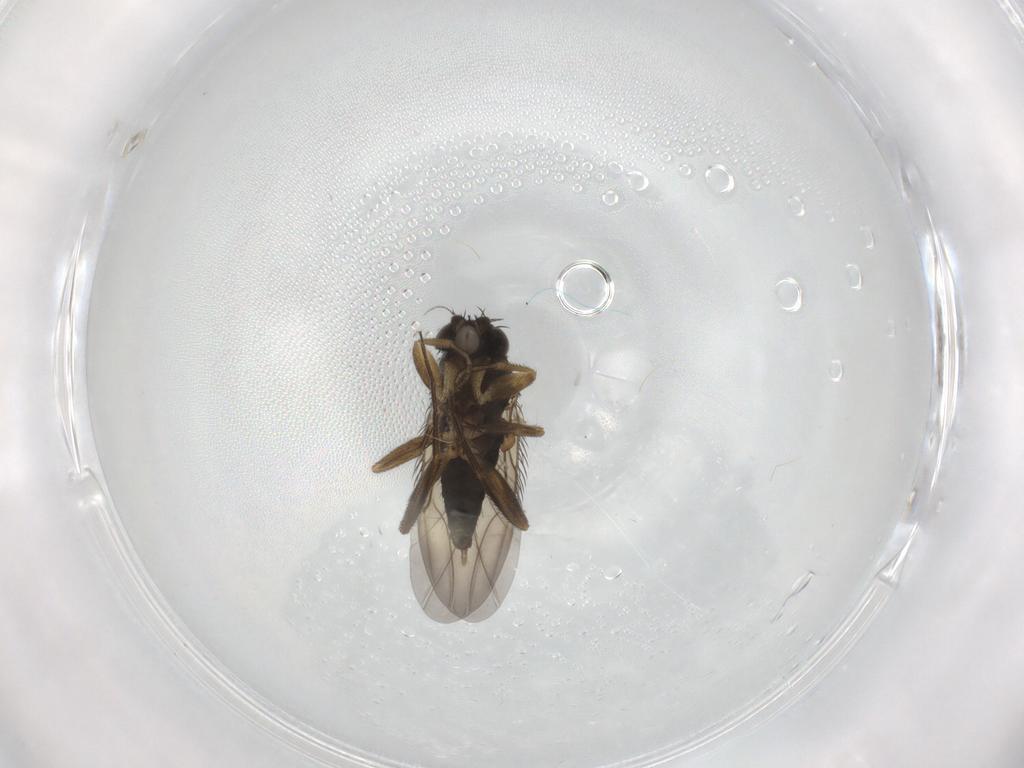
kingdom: Animalia
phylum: Arthropoda
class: Insecta
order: Diptera
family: Phoridae
